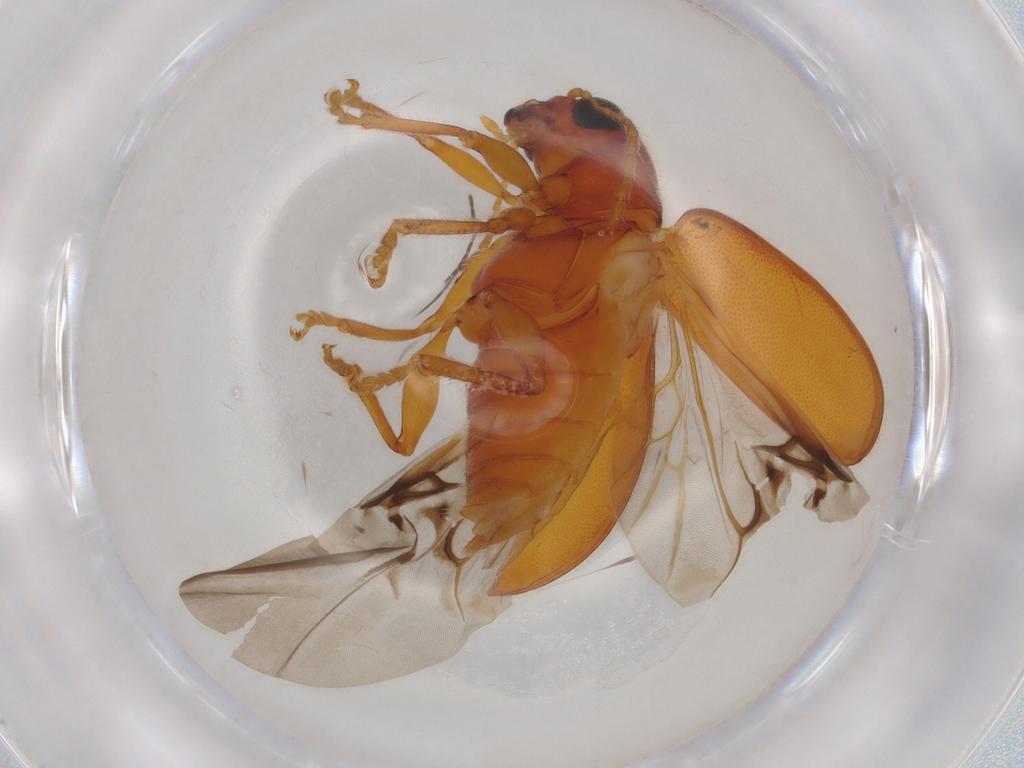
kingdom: Animalia
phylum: Arthropoda
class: Insecta
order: Coleoptera
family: Chrysomelidae
